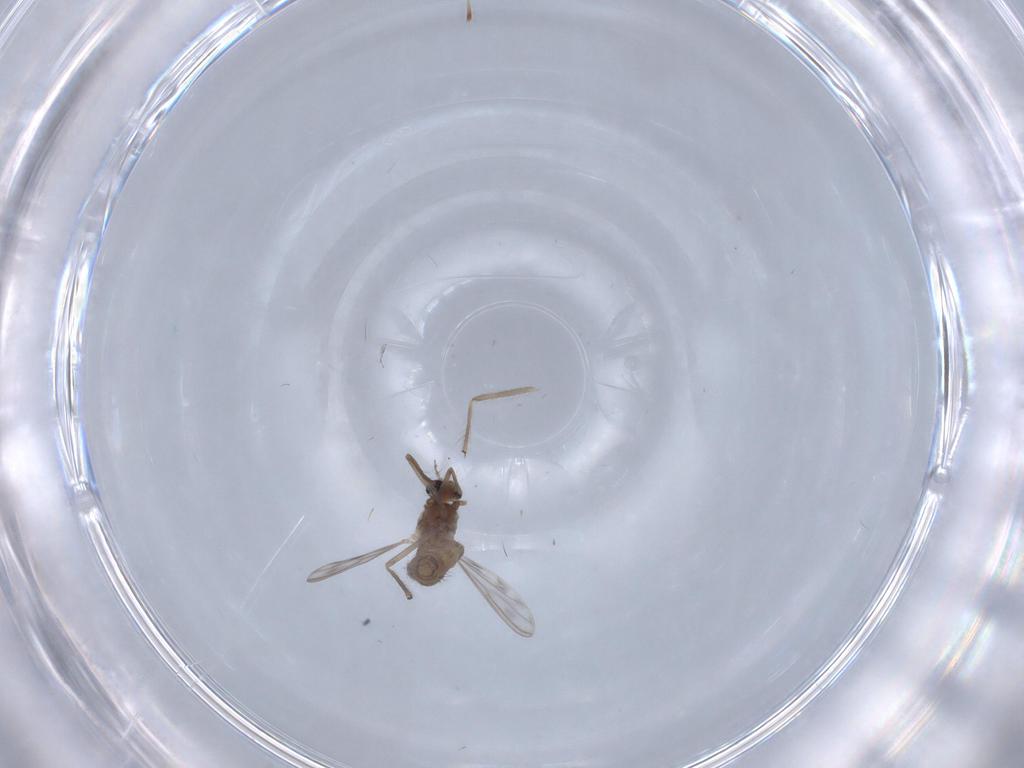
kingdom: Animalia
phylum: Arthropoda
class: Insecta
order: Diptera
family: Chironomidae
